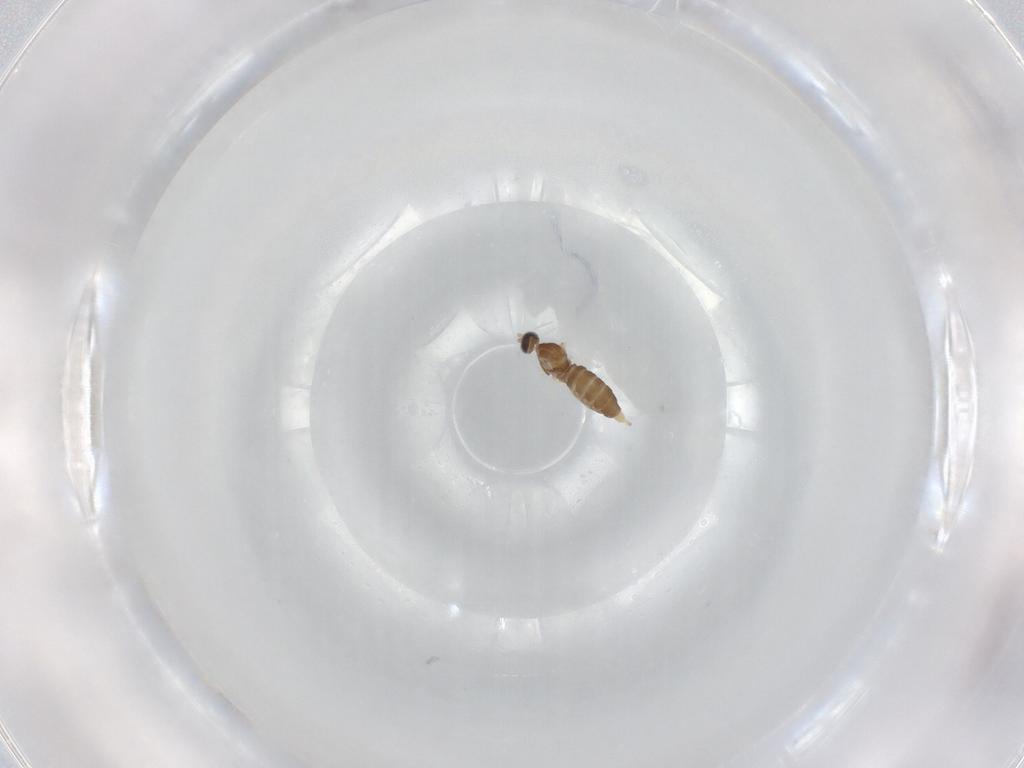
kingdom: Animalia
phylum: Arthropoda
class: Insecta
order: Diptera
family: Cecidomyiidae
